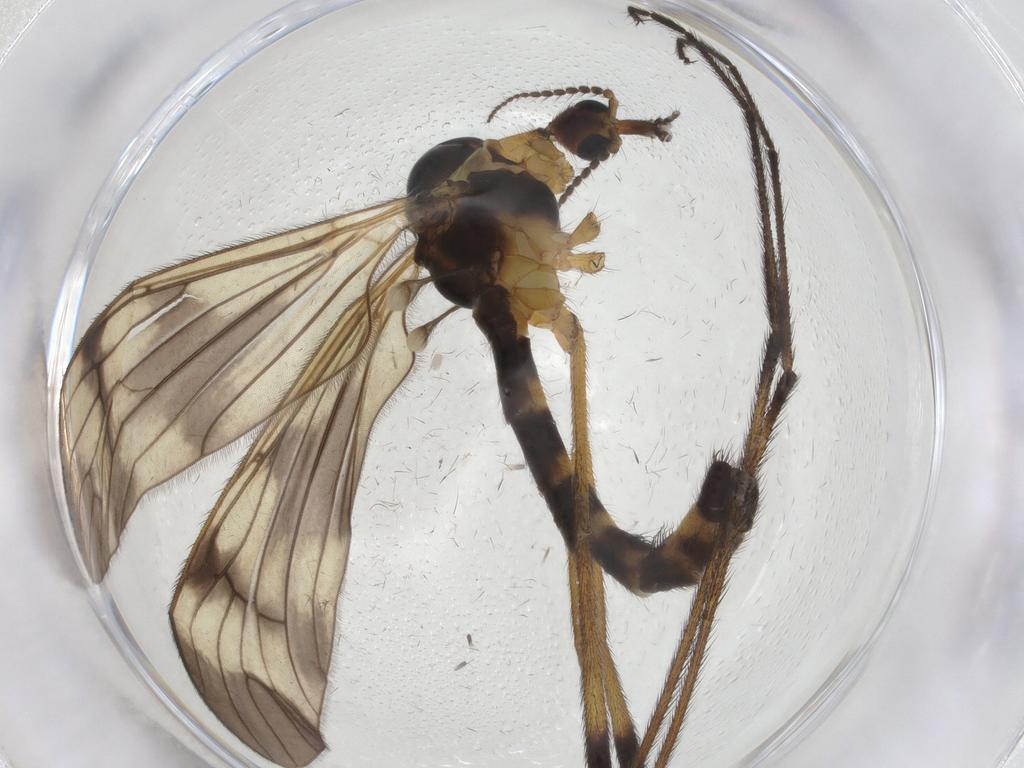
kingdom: Animalia
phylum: Arthropoda
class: Insecta
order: Diptera
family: Limoniidae
